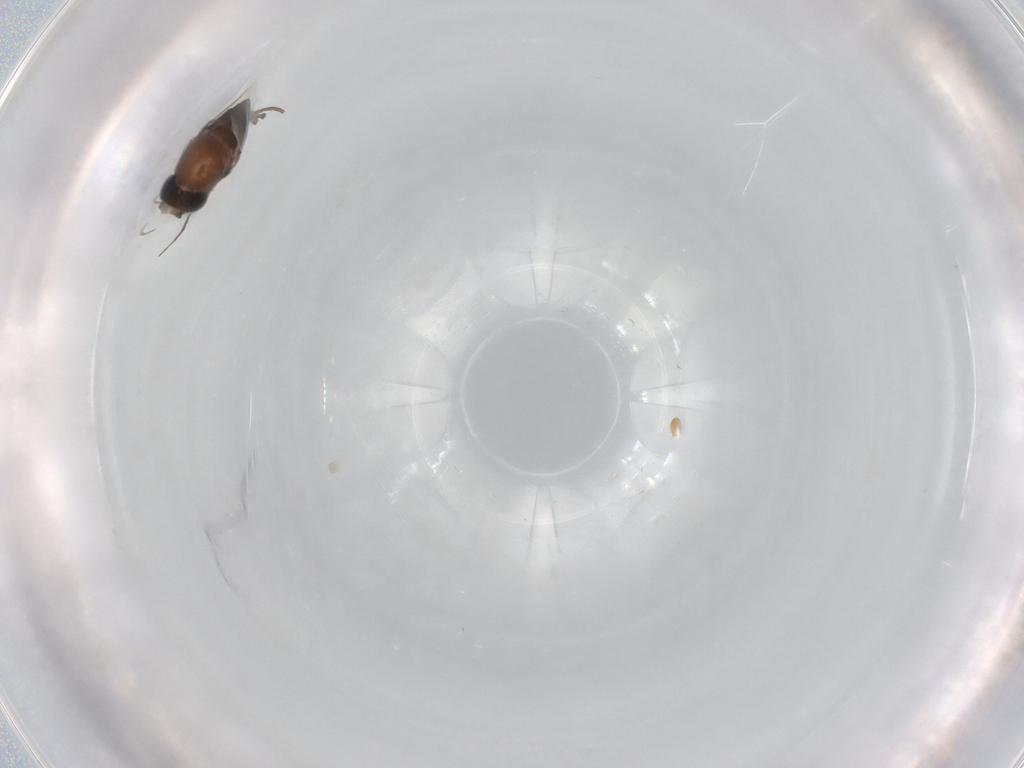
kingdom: Animalia
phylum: Arthropoda
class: Insecta
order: Diptera
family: Mycetophilidae
